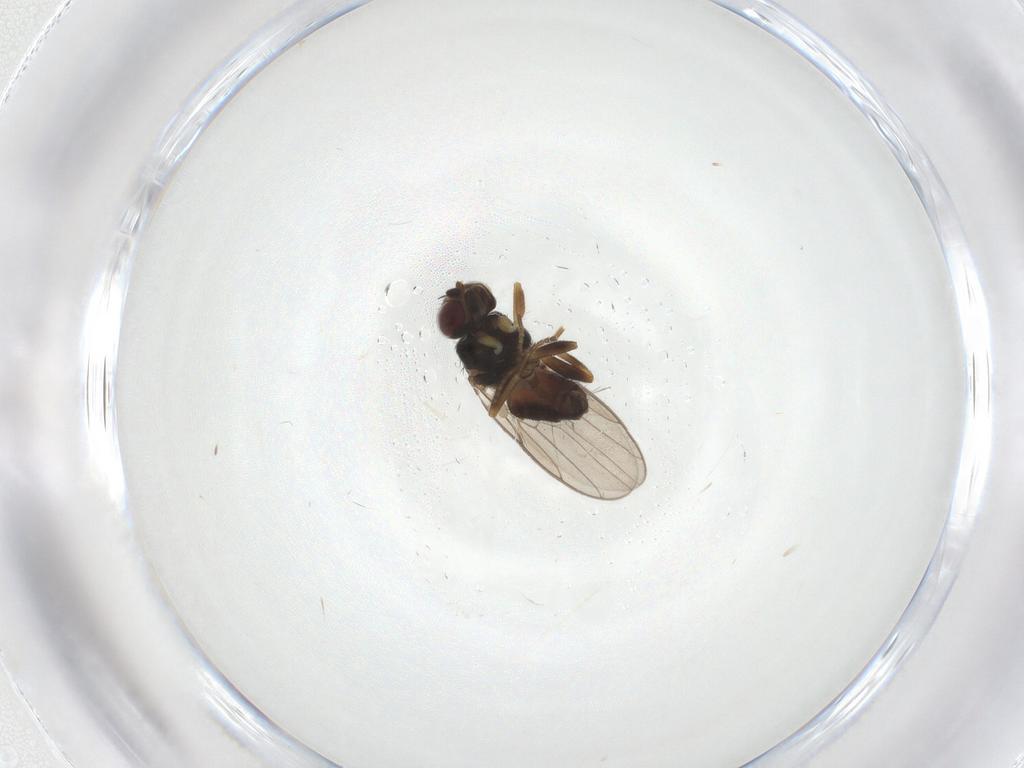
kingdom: Animalia
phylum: Arthropoda
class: Insecta
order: Diptera
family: Chloropidae
